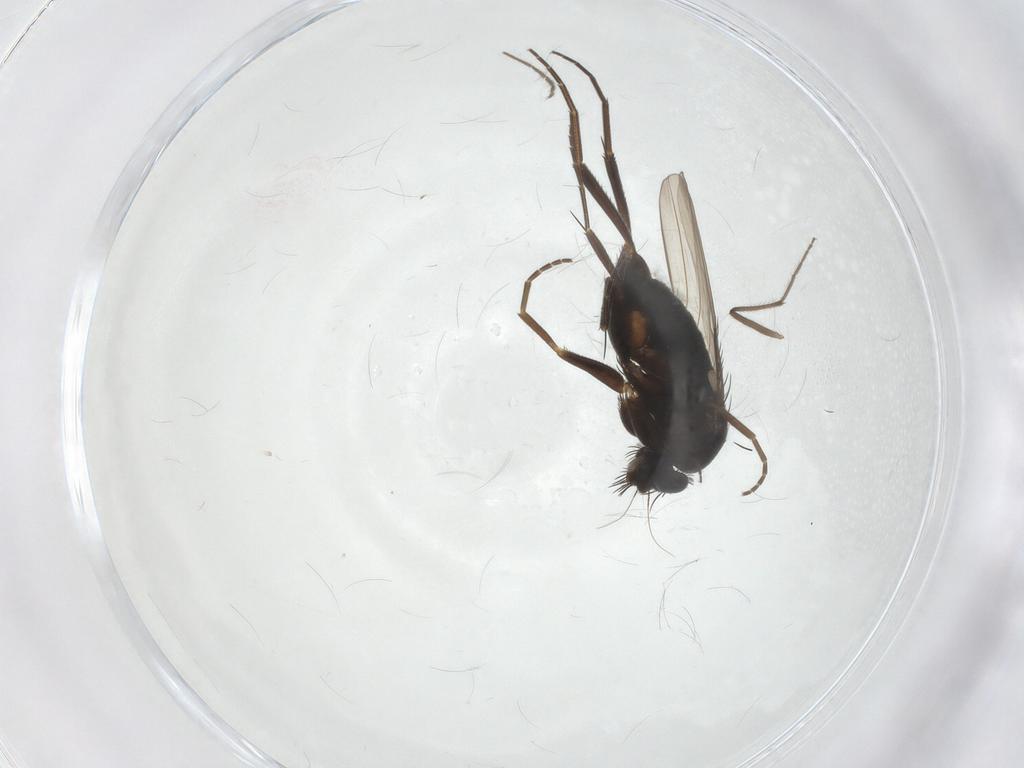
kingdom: Animalia
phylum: Arthropoda
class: Insecta
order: Diptera
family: Phoridae
